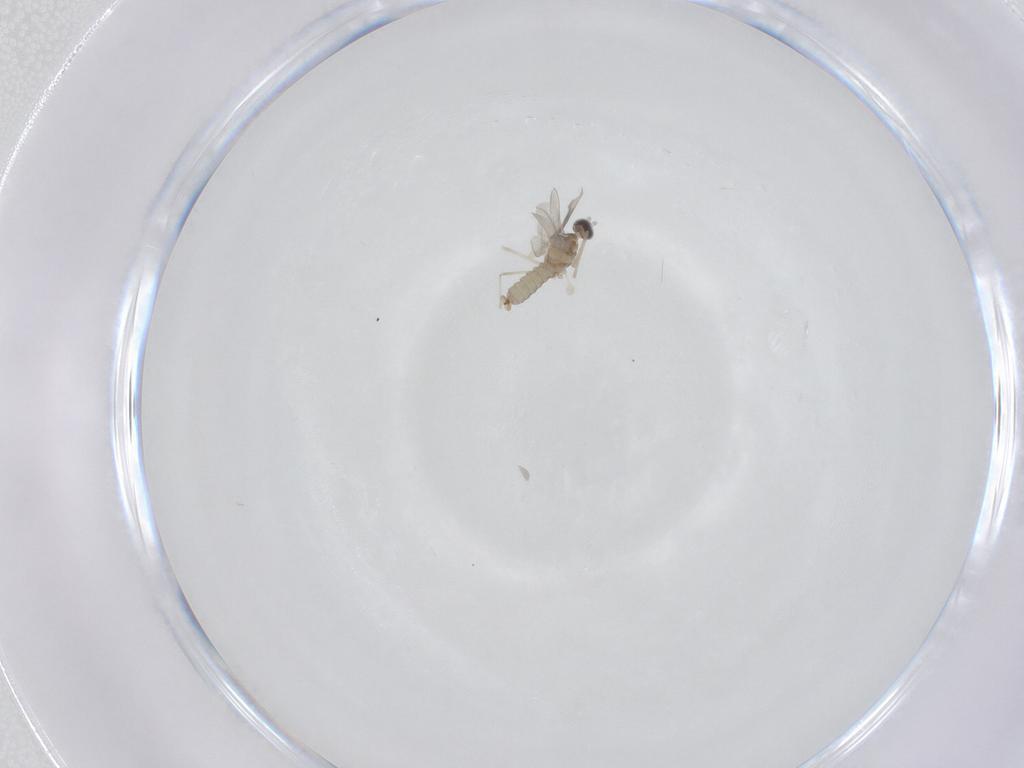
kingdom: Animalia
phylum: Arthropoda
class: Insecta
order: Diptera
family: Cecidomyiidae
